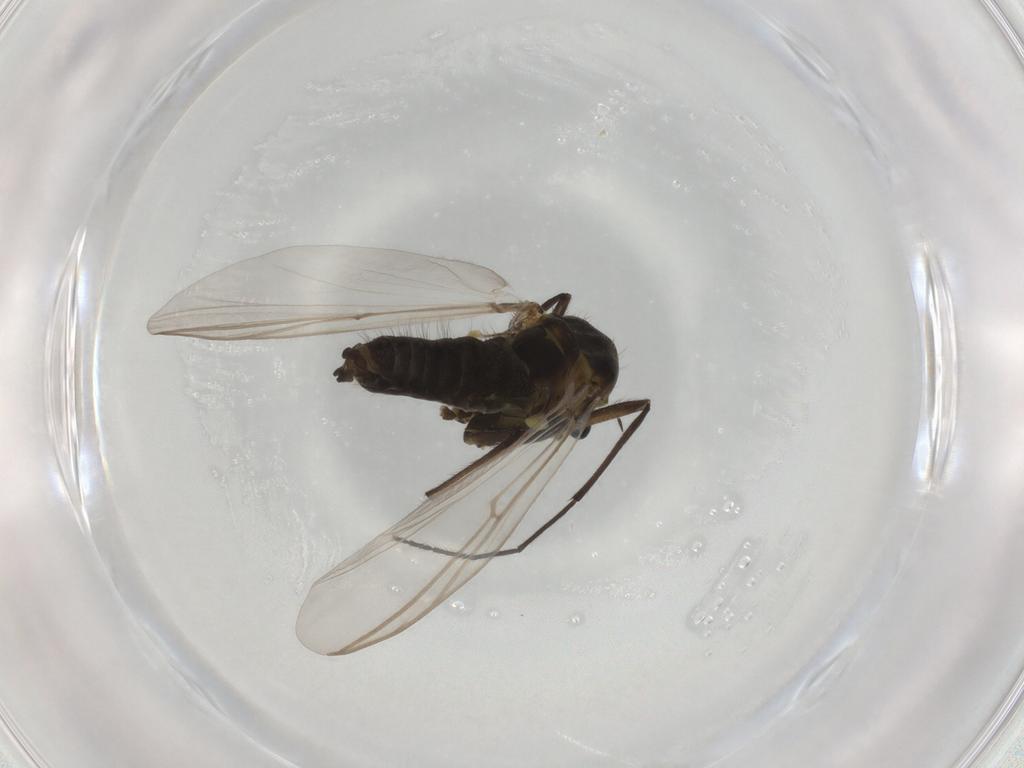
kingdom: Animalia
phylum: Arthropoda
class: Insecta
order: Diptera
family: Chironomidae
